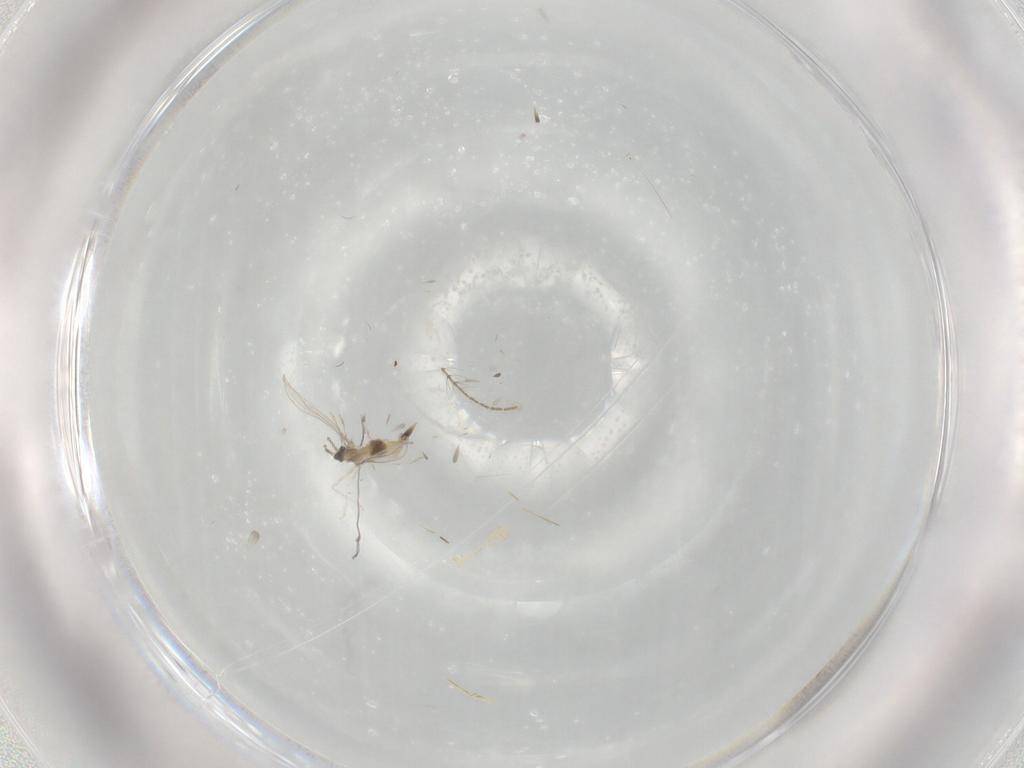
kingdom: Animalia
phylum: Arthropoda
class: Insecta
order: Diptera
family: Cecidomyiidae
